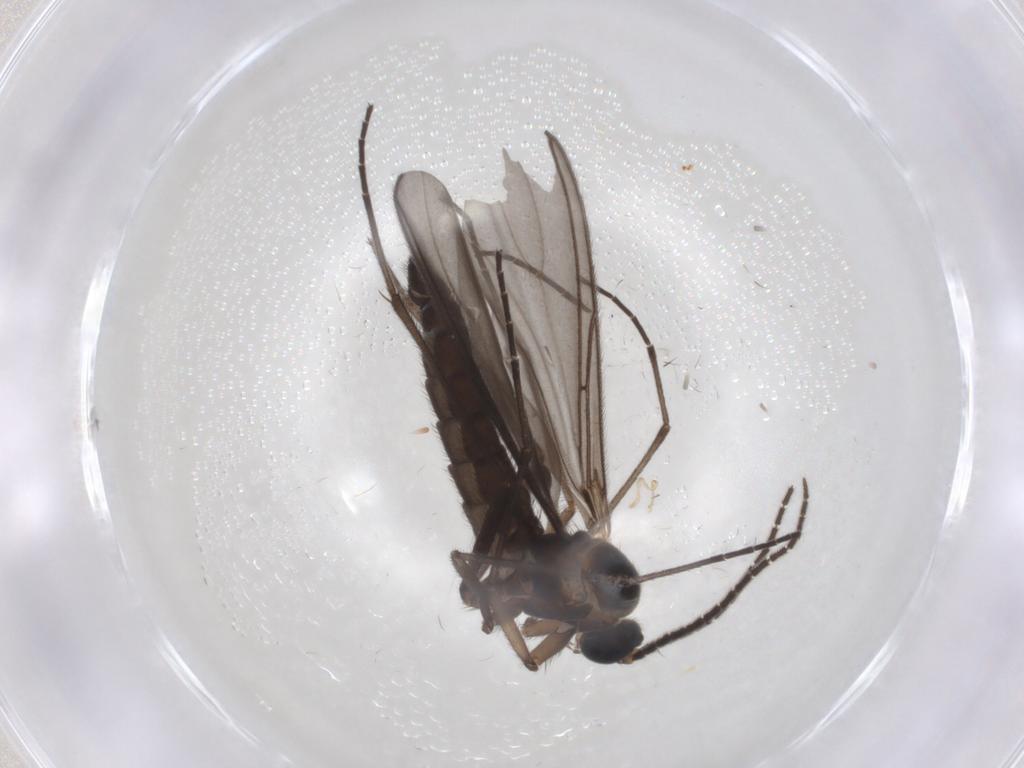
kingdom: Animalia
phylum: Arthropoda
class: Insecta
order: Diptera
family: Sciaridae
